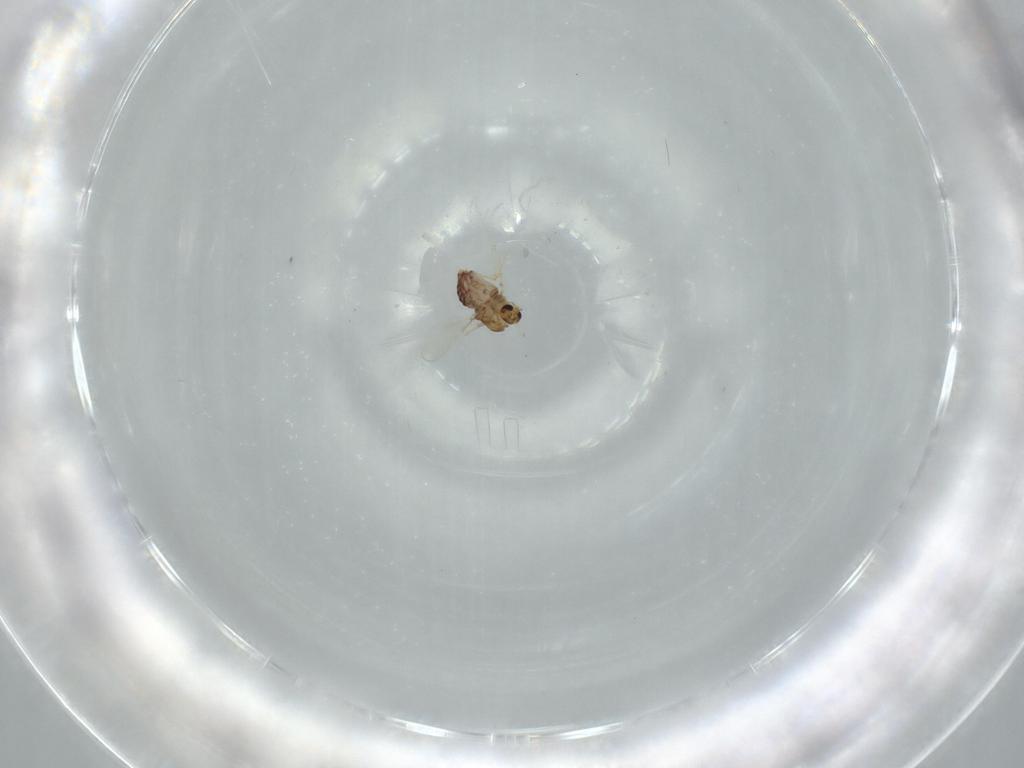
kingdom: Animalia
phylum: Arthropoda
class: Insecta
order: Diptera
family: Chironomidae
